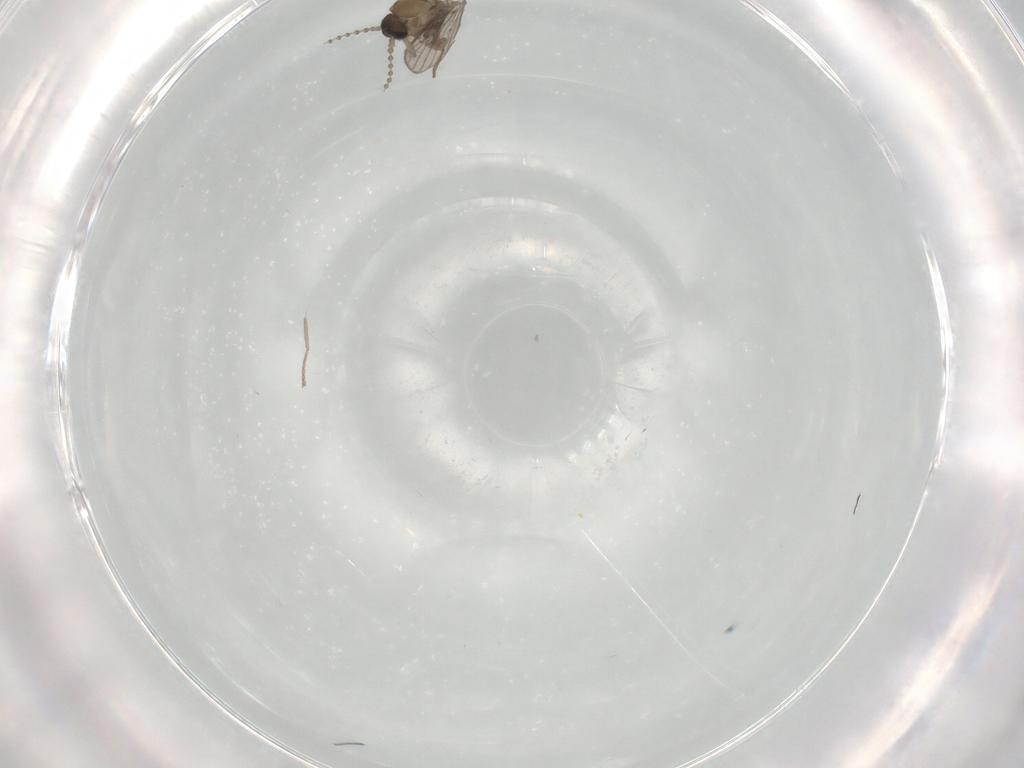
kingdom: Animalia
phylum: Arthropoda
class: Insecta
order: Diptera
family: Psychodidae
